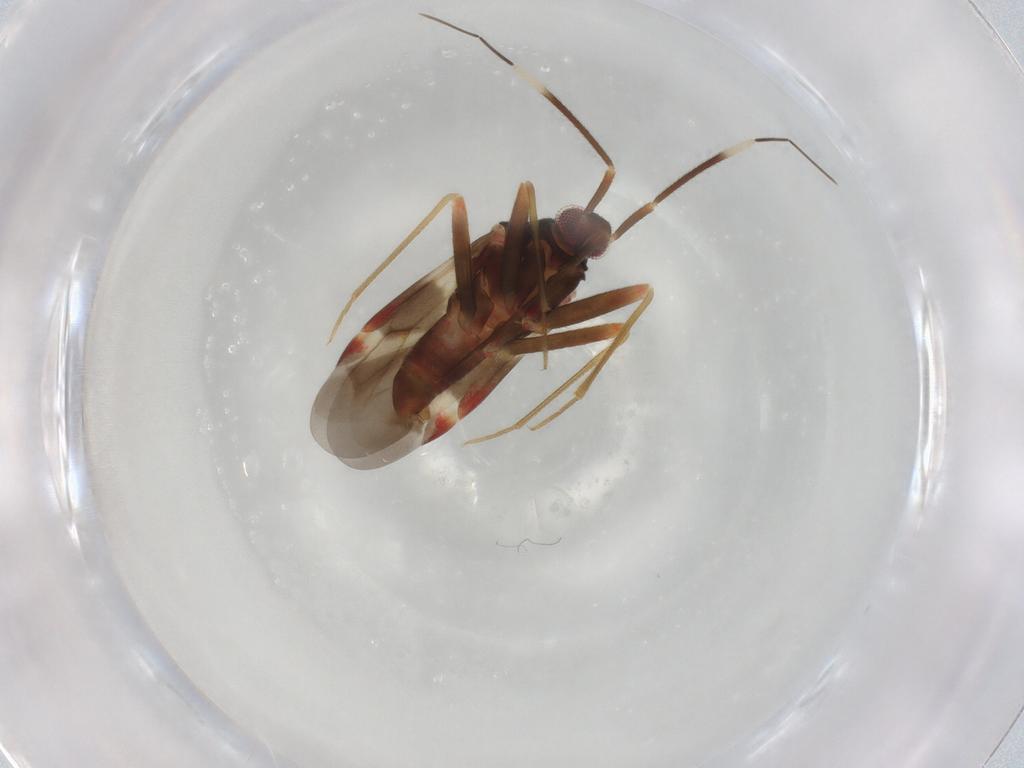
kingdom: Animalia
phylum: Arthropoda
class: Insecta
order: Hemiptera
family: Miridae
